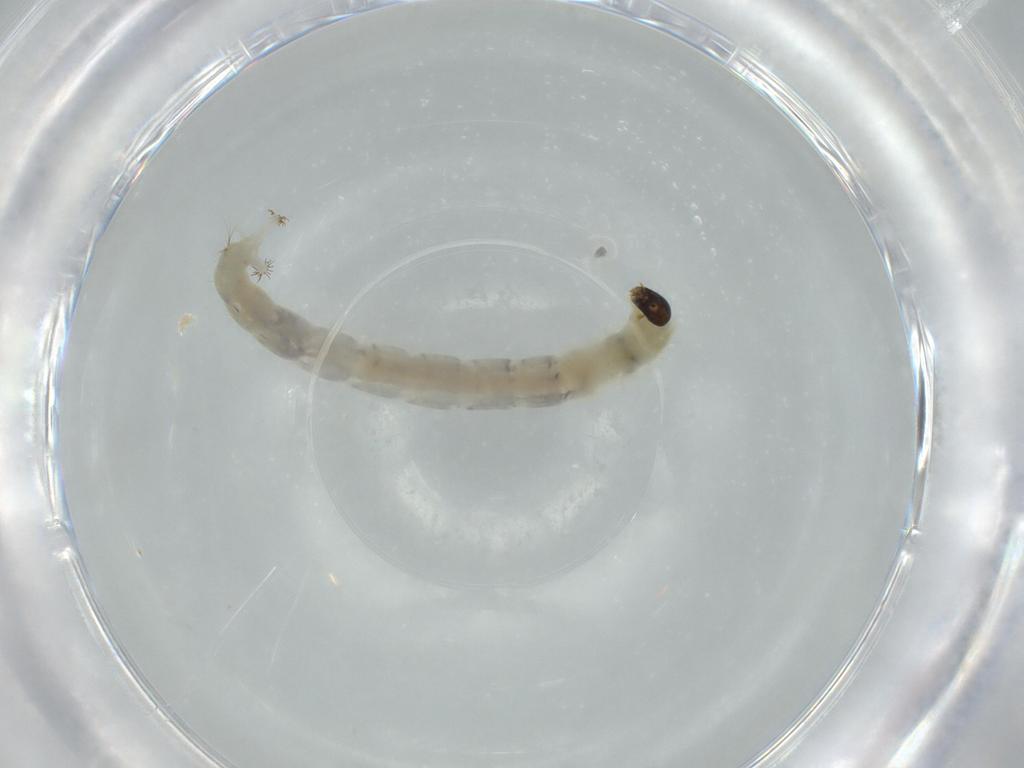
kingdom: Animalia
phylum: Arthropoda
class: Insecta
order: Diptera
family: Chironomidae
